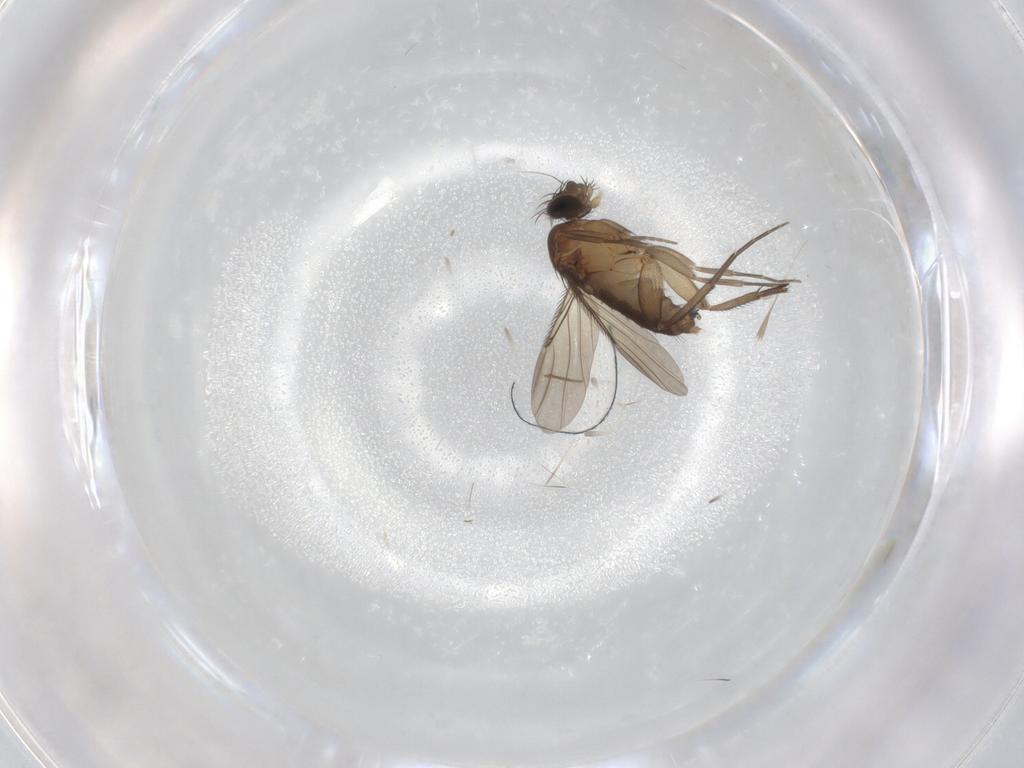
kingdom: Animalia
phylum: Arthropoda
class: Insecta
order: Diptera
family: Phoridae
